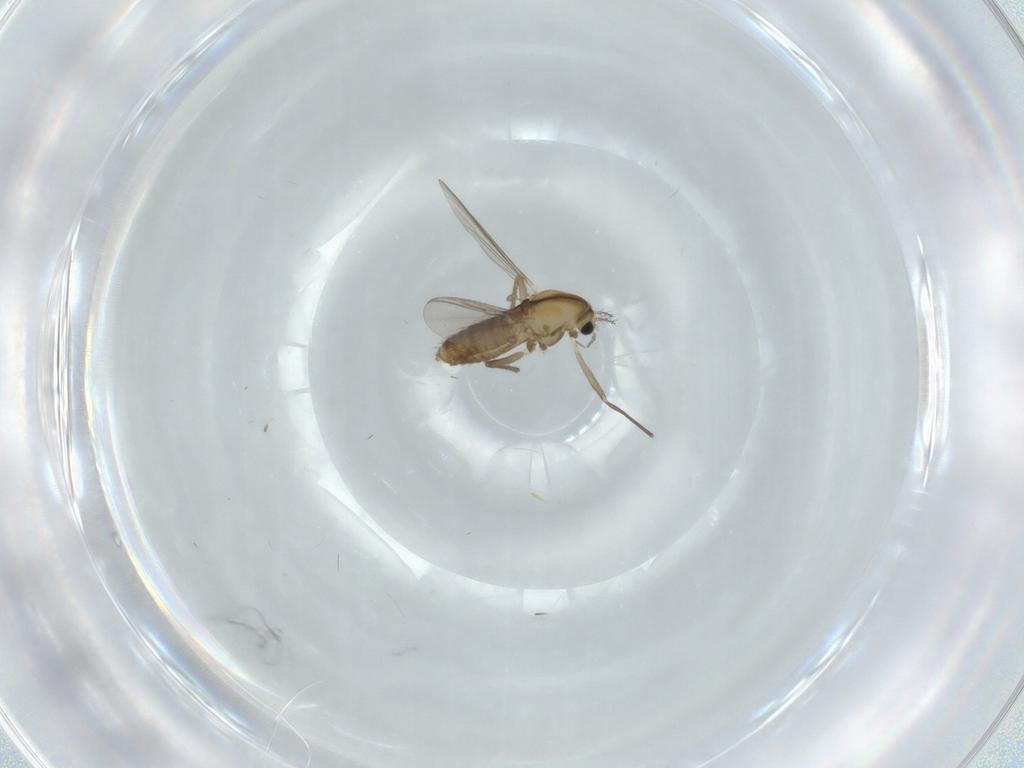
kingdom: Animalia
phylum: Arthropoda
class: Insecta
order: Diptera
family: Chironomidae
